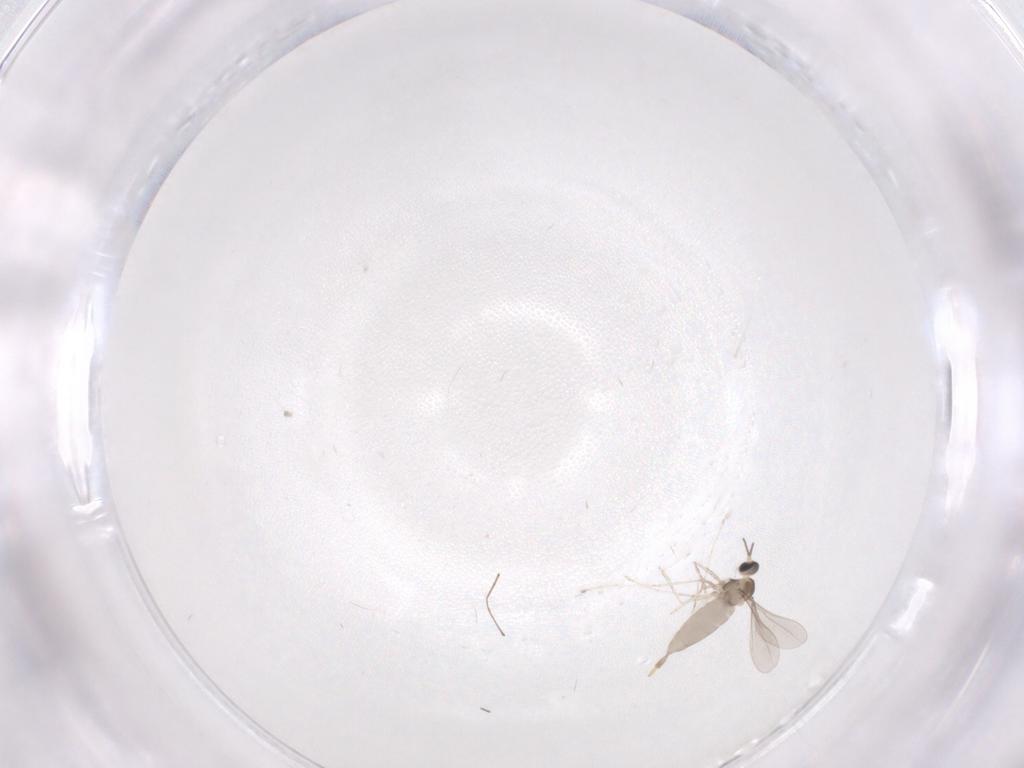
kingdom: Animalia
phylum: Arthropoda
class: Insecta
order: Diptera
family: Cecidomyiidae
